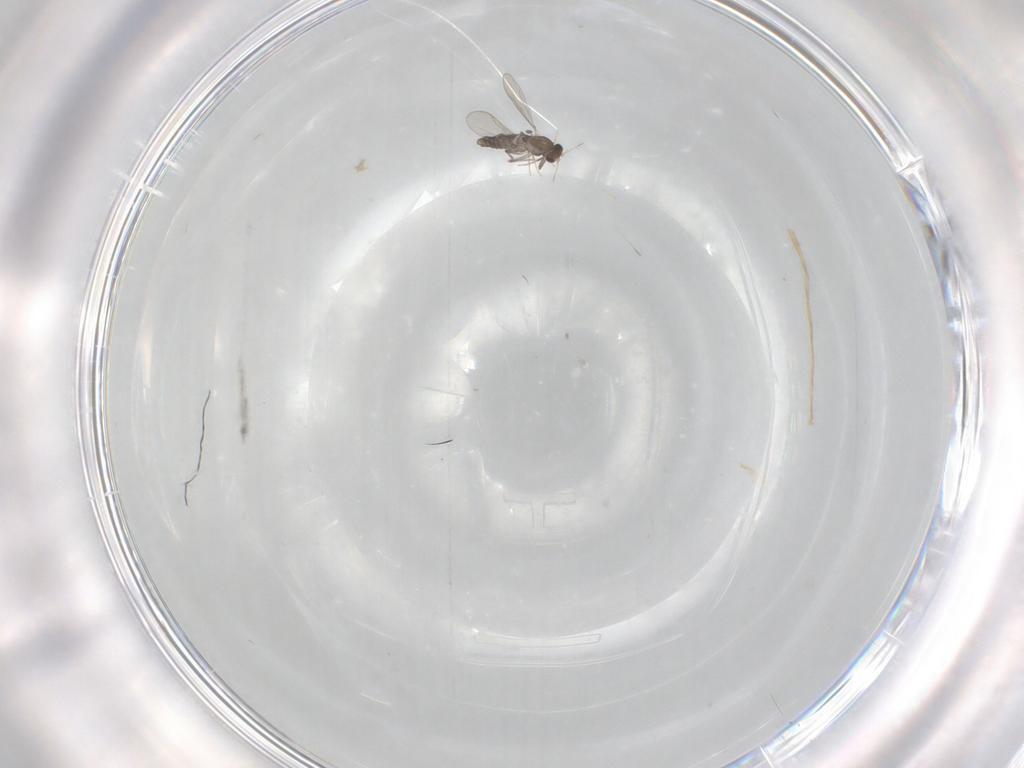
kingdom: Animalia
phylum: Arthropoda
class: Insecta
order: Diptera
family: Chironomidae
